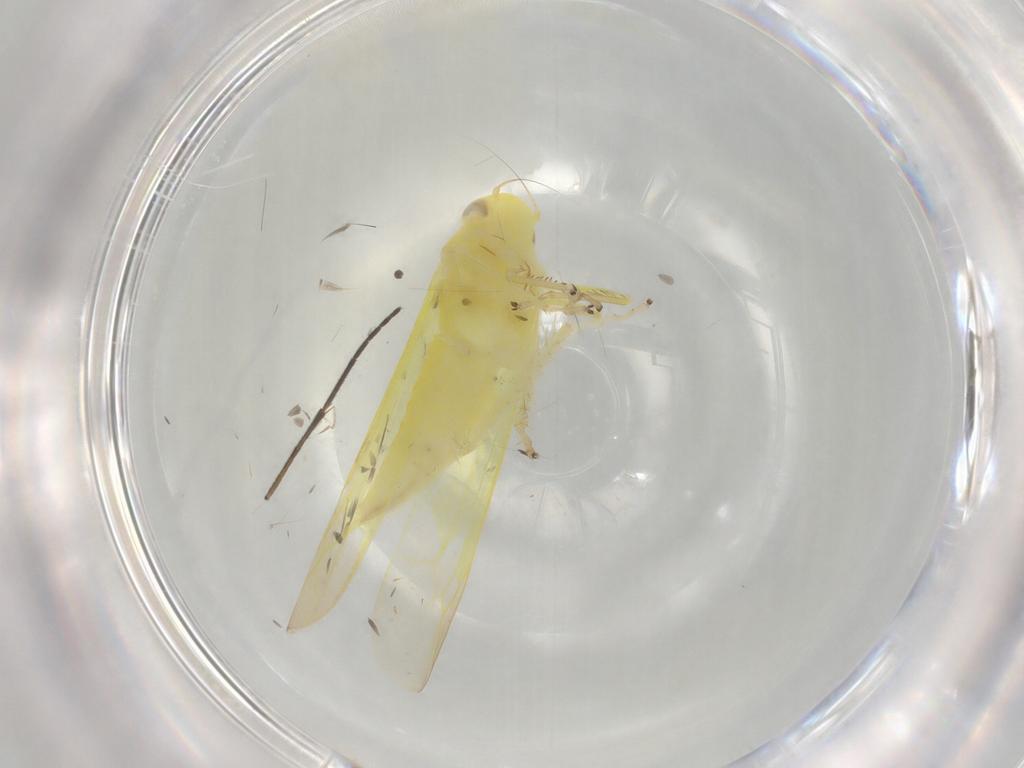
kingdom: Animalia
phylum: Arthropoda
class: Insecta
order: Hemiptera
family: Cicadellidae
